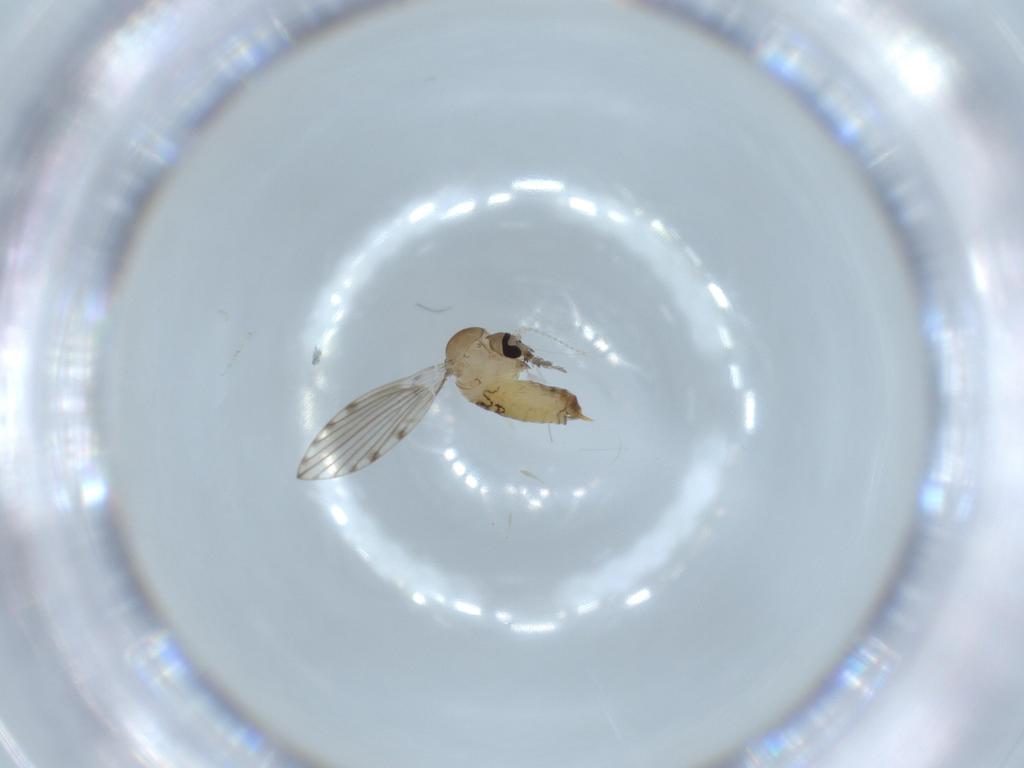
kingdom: Animalia
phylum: Arthropoda
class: Insecta
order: Diptera
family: Psychodidae
